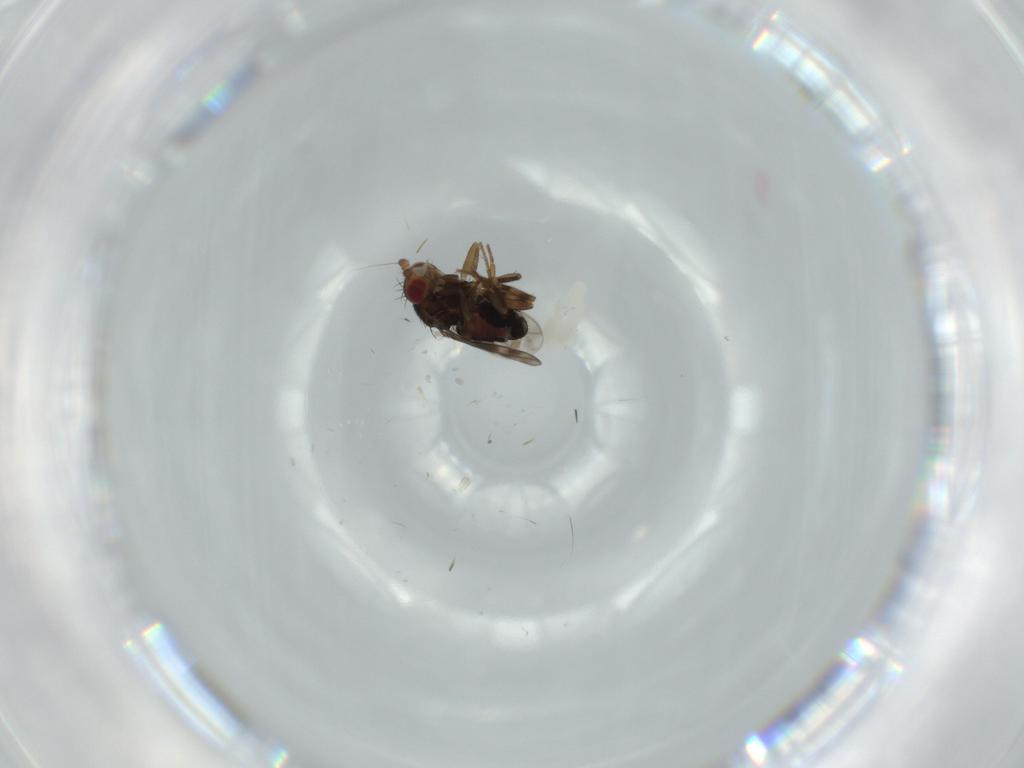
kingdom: Animalia
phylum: Arthropoda
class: Insecta
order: Diptera
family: Sphaeroceridae
